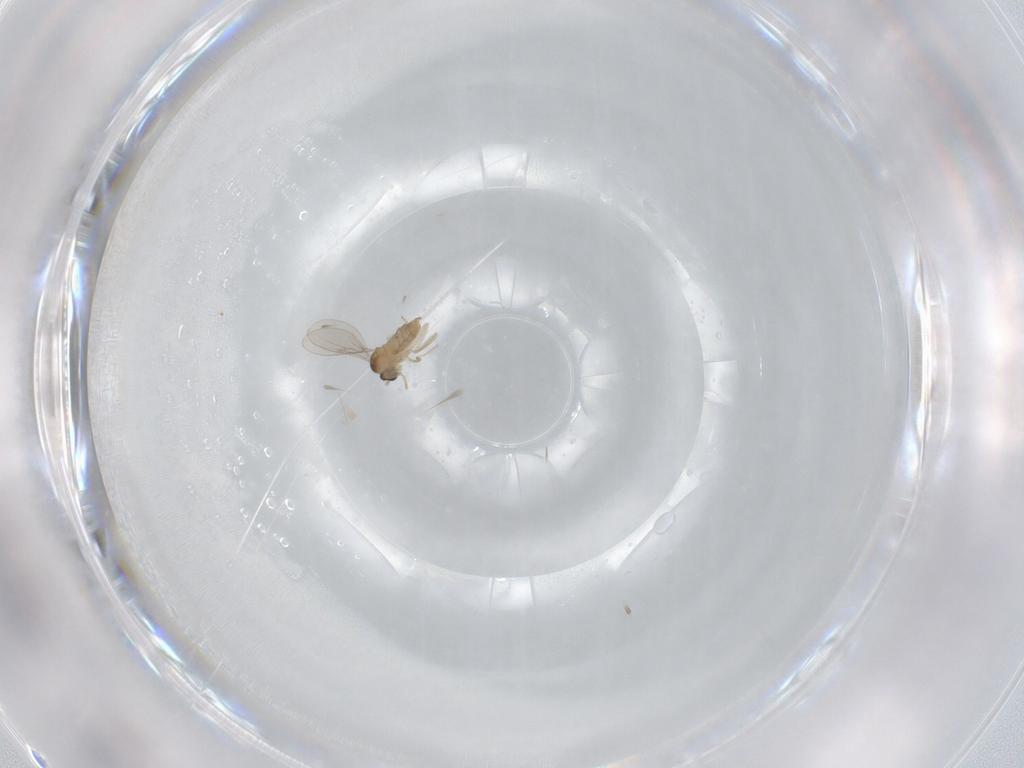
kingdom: Animalia
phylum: Arthropoda
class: Insecta
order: Diptera
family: Cecidomyiidae
